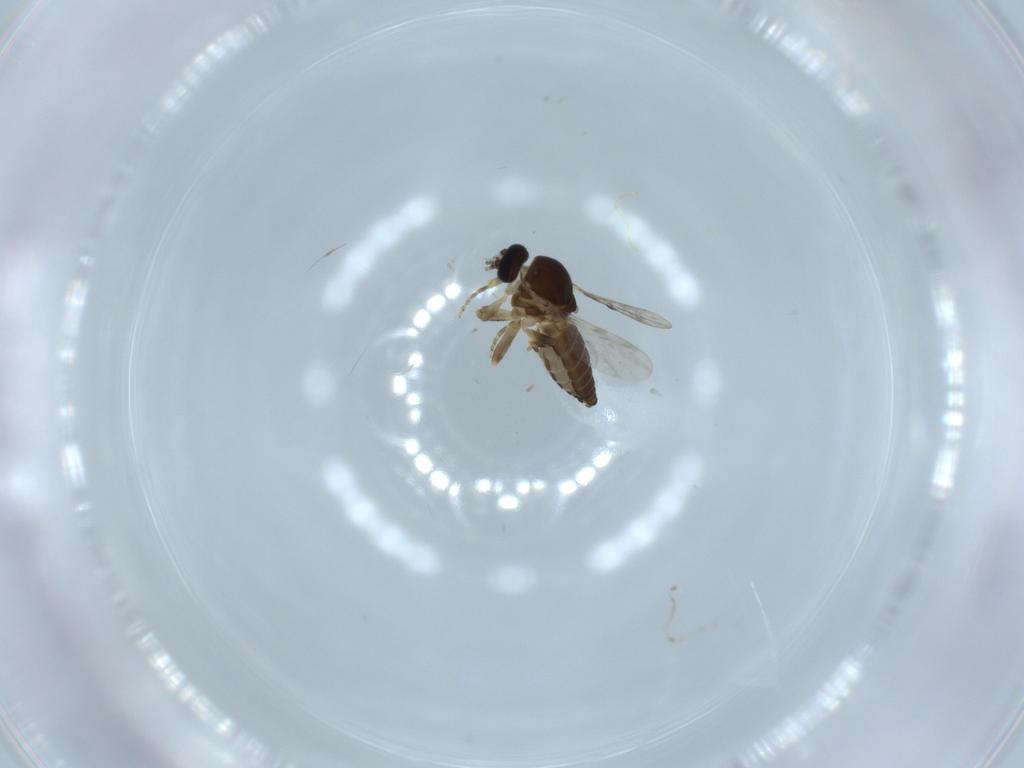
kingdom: Animalia
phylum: Arthropoda
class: Insecta
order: Diptera
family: Ceratopogonidae
